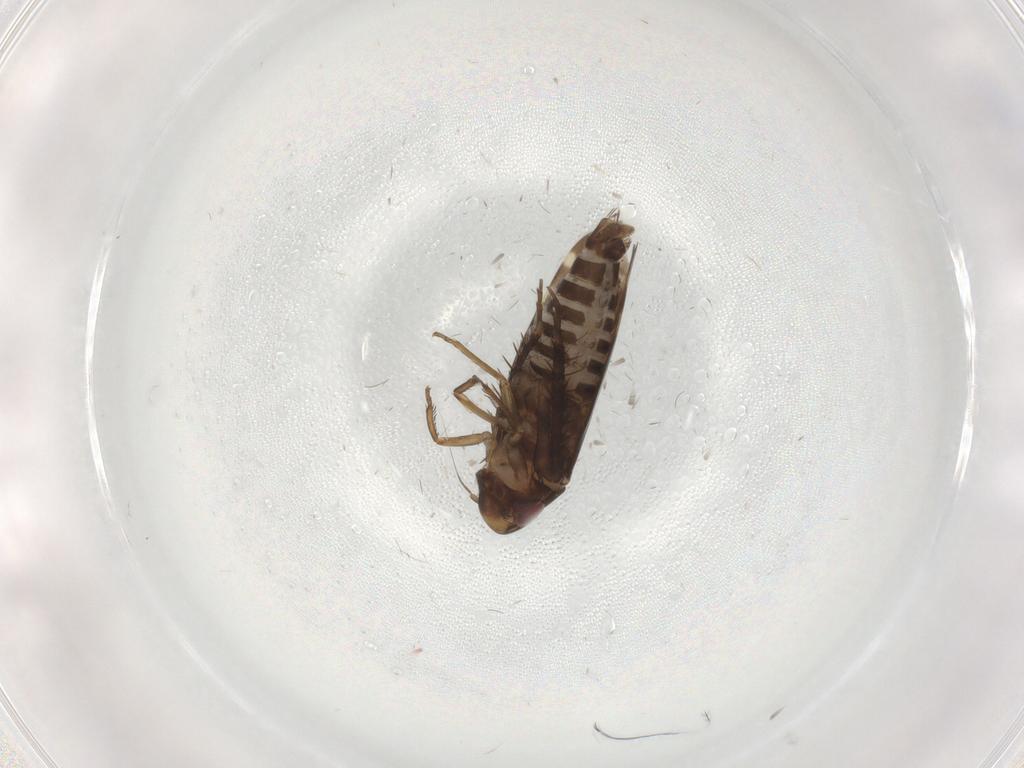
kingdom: Animalia
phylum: Arthropoda
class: Insecta
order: Hemiptera
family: Cicadellidae
